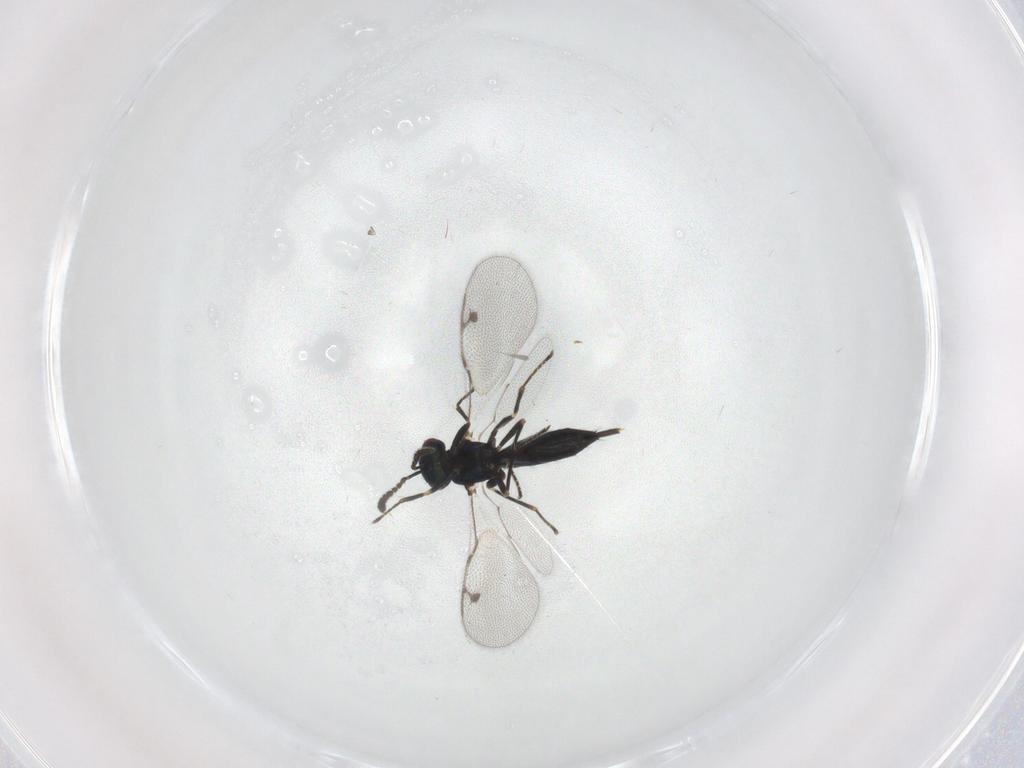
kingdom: Animalia
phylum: Arthropoda
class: Insecta
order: Hymenoptera
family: Pirenidae
